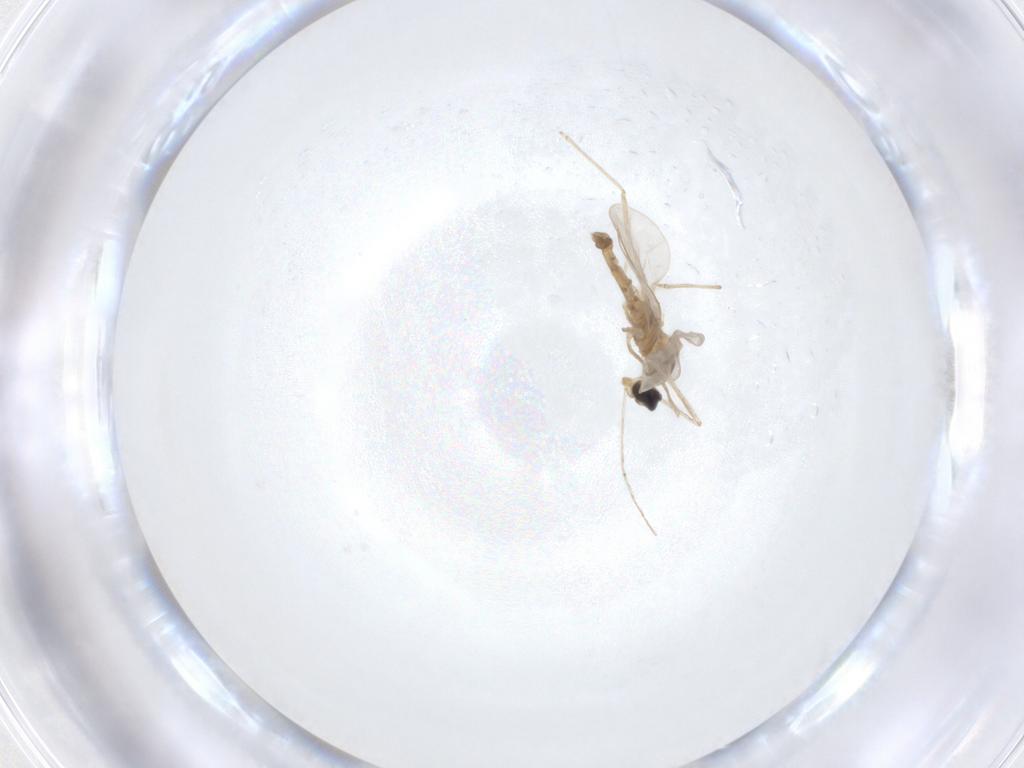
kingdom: Animalia
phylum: Arthropoda
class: Insecta
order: Diptera
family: Cecidomyiidae
